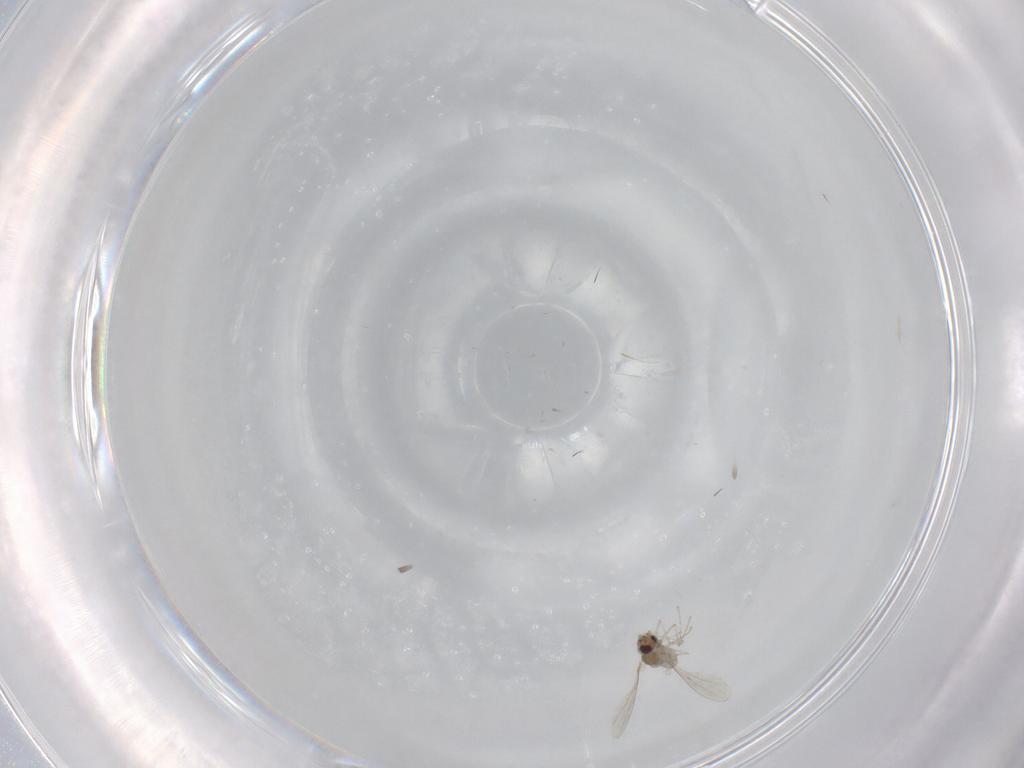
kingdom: Animalia
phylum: Arthropoda
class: Insecta
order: Diptera
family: Cecidomyiidae
